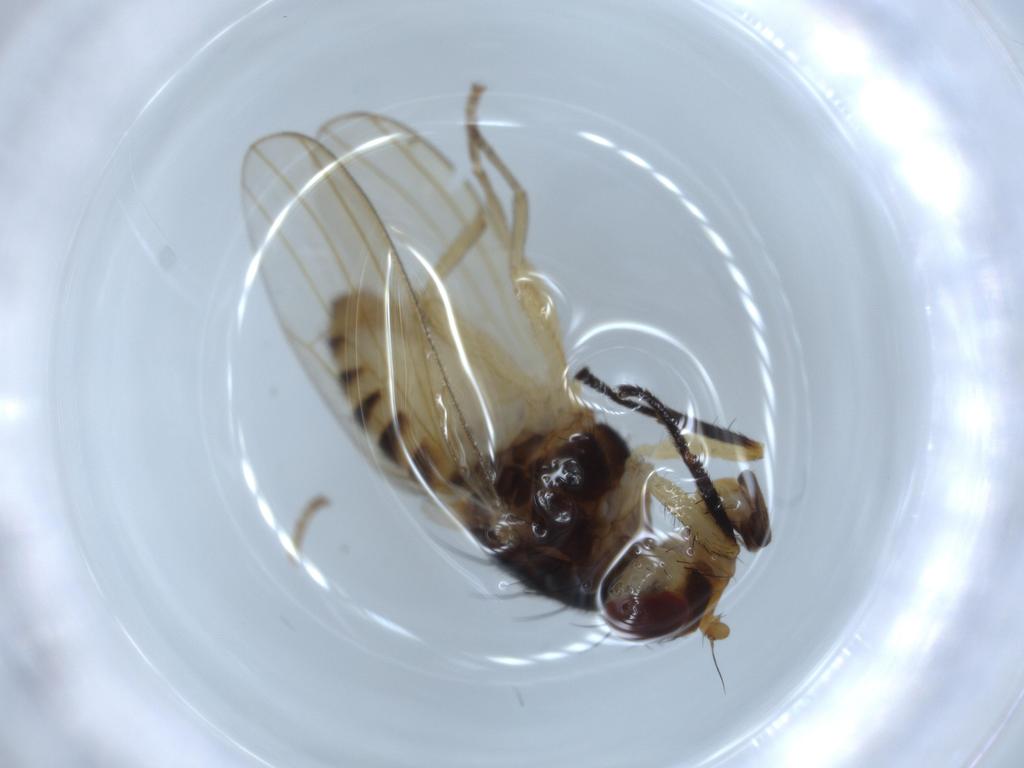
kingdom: Animalia
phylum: Arthropoda
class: Insecta
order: Diptera
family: Lauxaniidae
